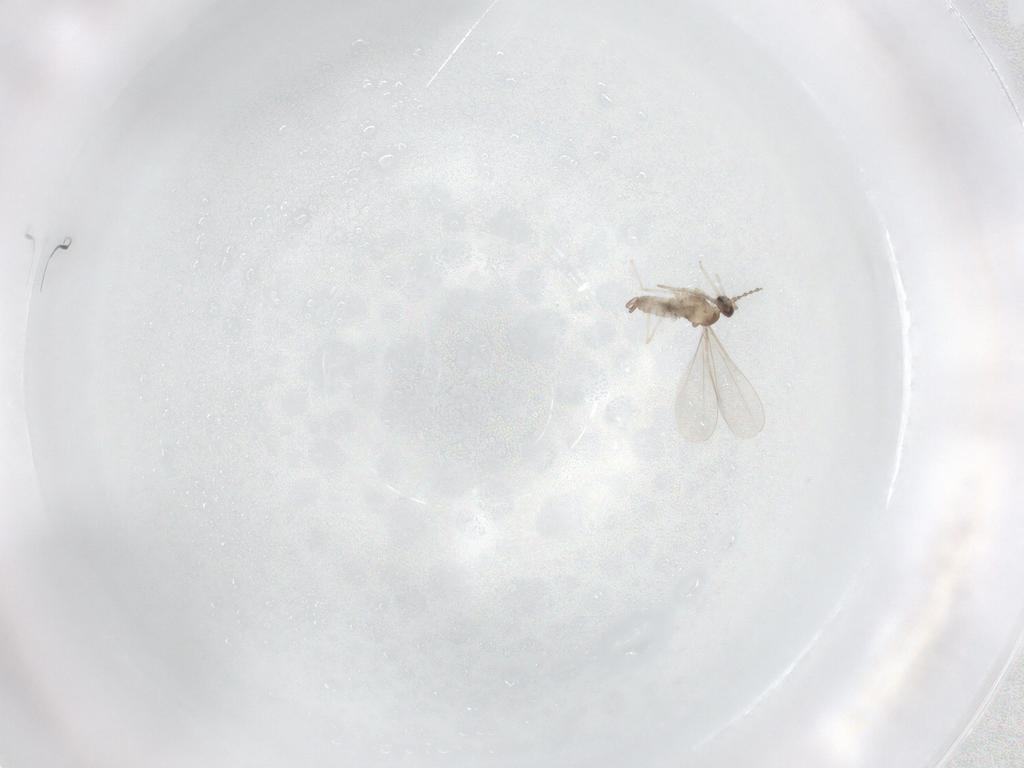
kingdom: Animalia
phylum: Arthropoda
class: Insecta
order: Diptera
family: Cecidomyiidae
